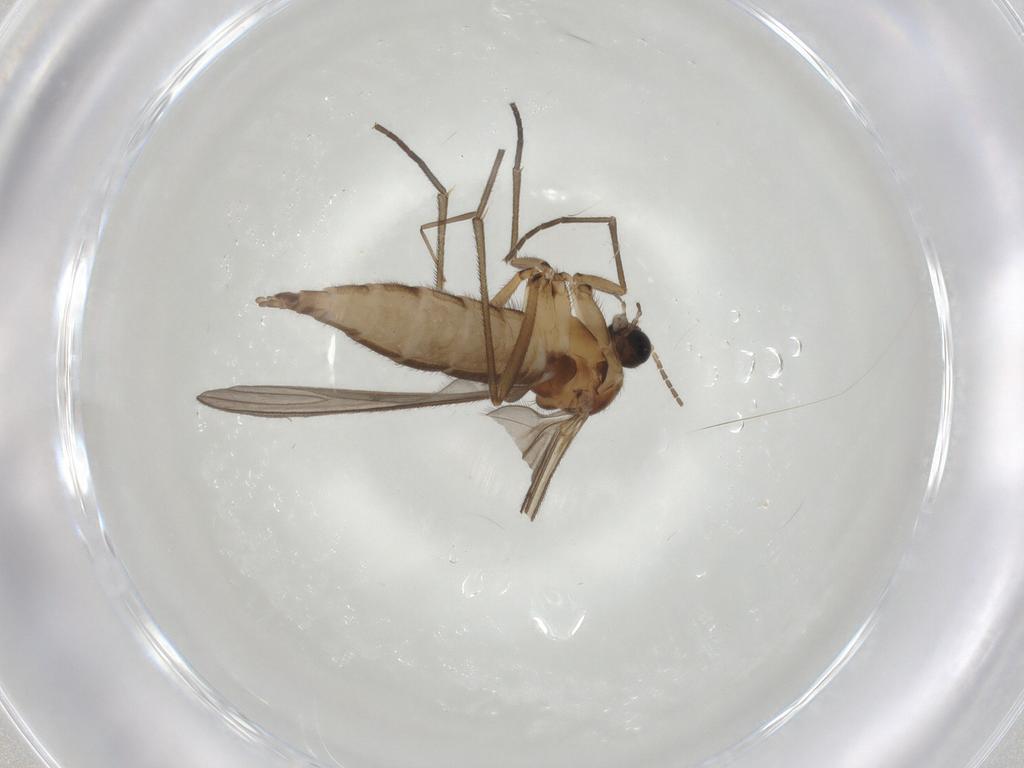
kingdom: Animalia
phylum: Arthropoda
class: Insecta
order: Diptera
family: Sciaridae
